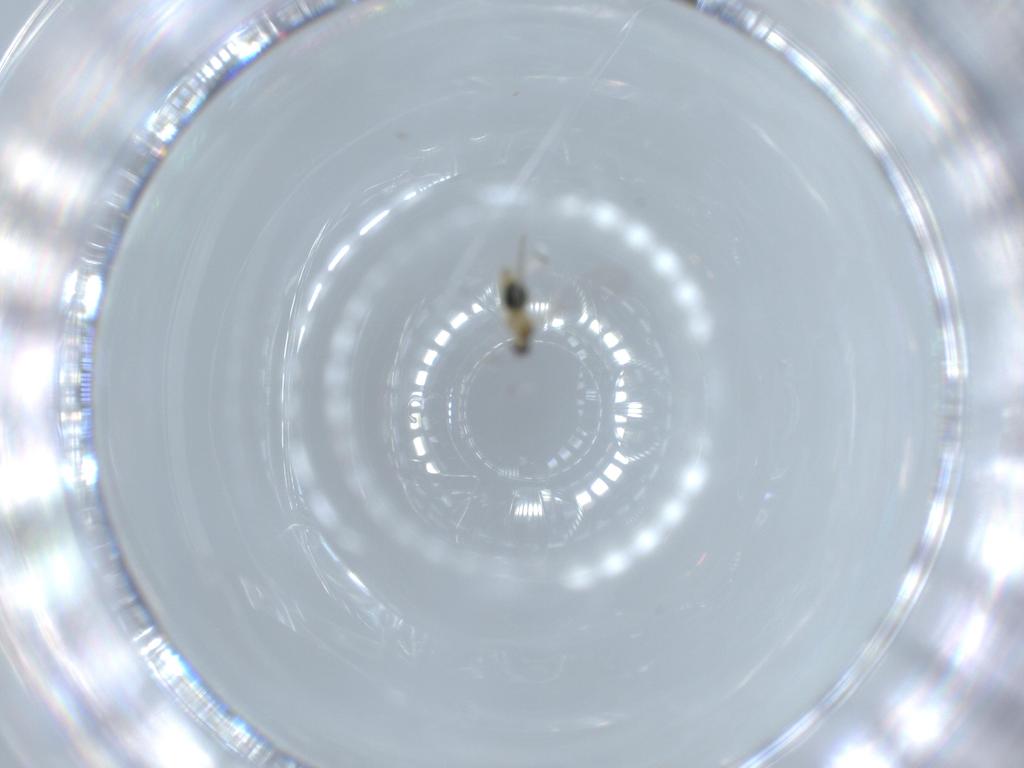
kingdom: Animalia
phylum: Arthropoda
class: Insecta
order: Diptera
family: Cecidomyiidae
